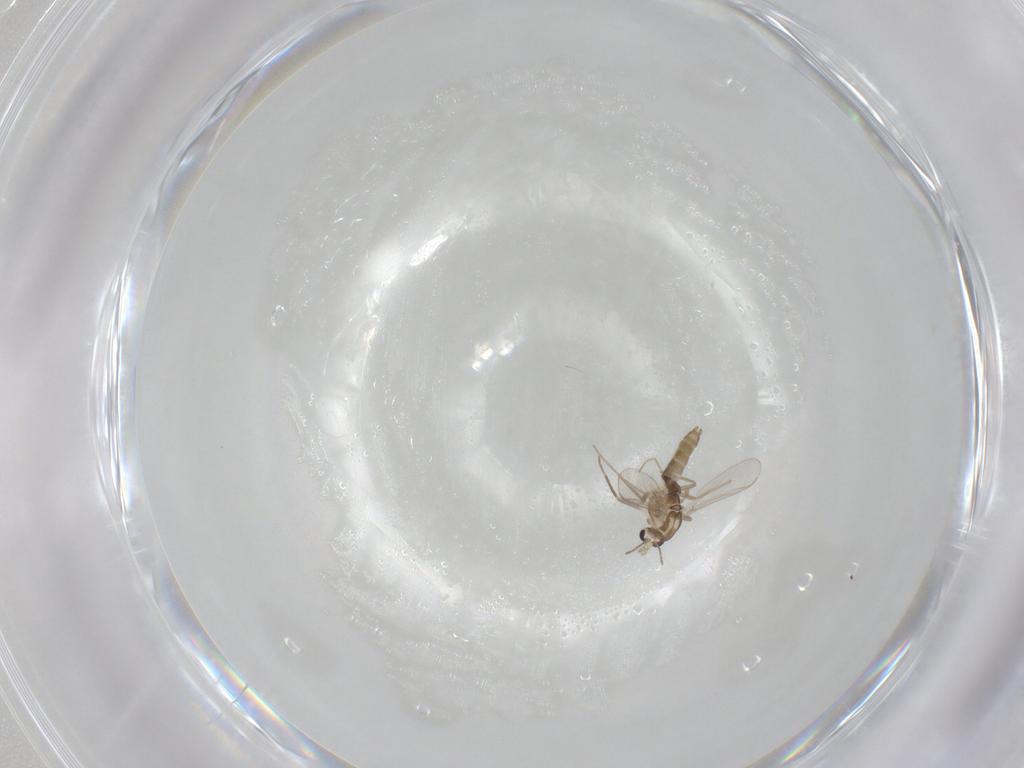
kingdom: Animalia
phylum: Arthropoda
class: Insecta
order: Diptera
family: Chironomidae
